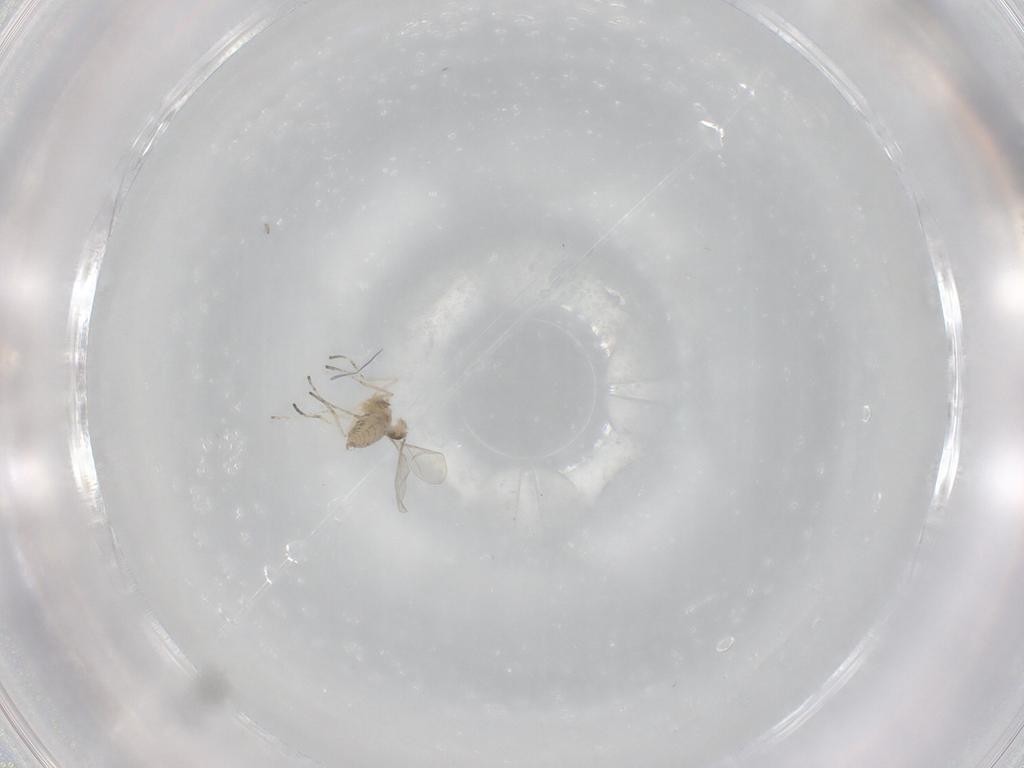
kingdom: Animalia
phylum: Arthropoda
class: Insecta
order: Diptera
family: Cecidomyiidae
